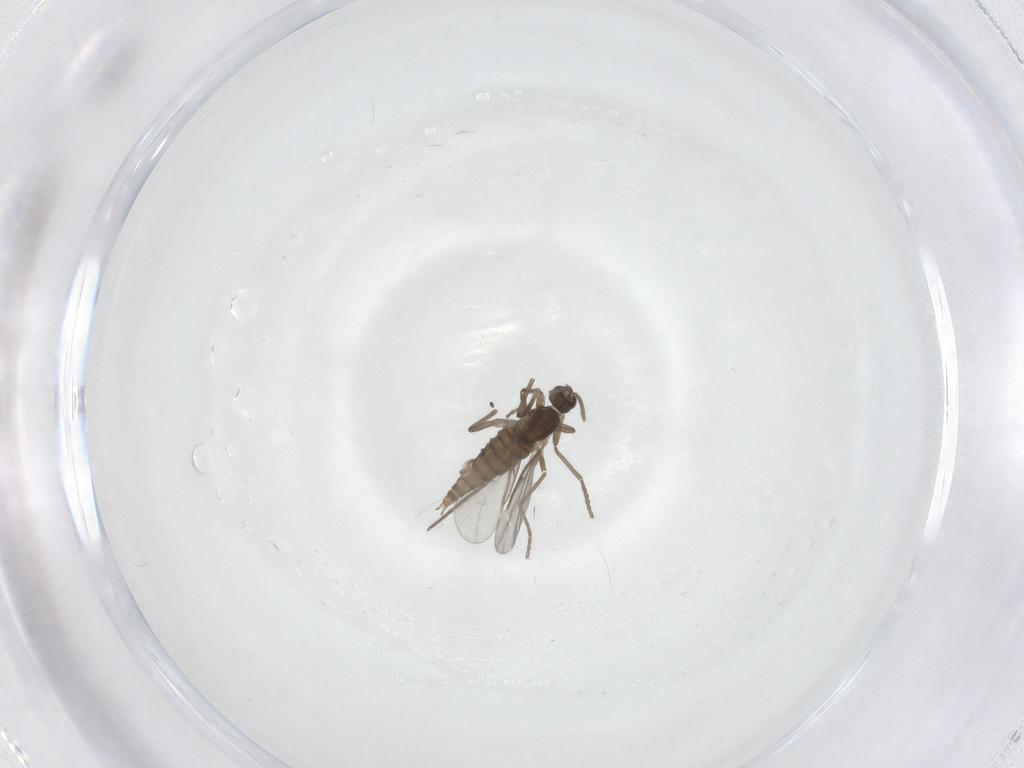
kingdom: Animalia
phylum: Arthropoda
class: Insecta
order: Diptera
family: Cecidomyiidae
